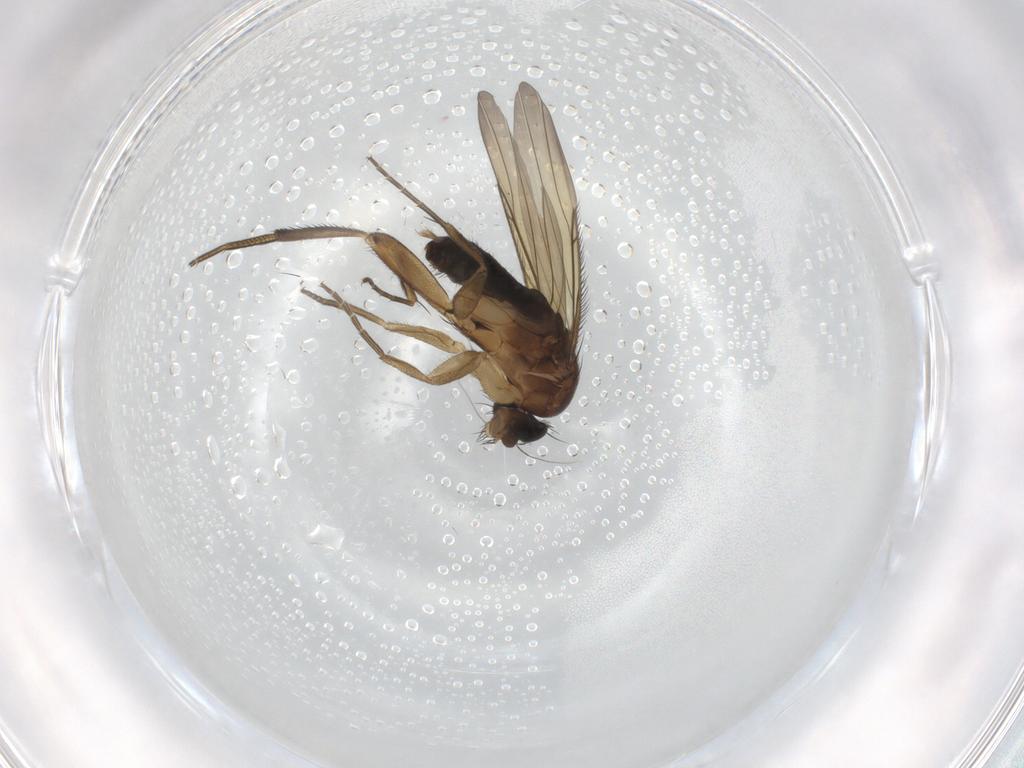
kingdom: Animalia
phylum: Arthropoda
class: Insecta
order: Diptera
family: Phoridae
